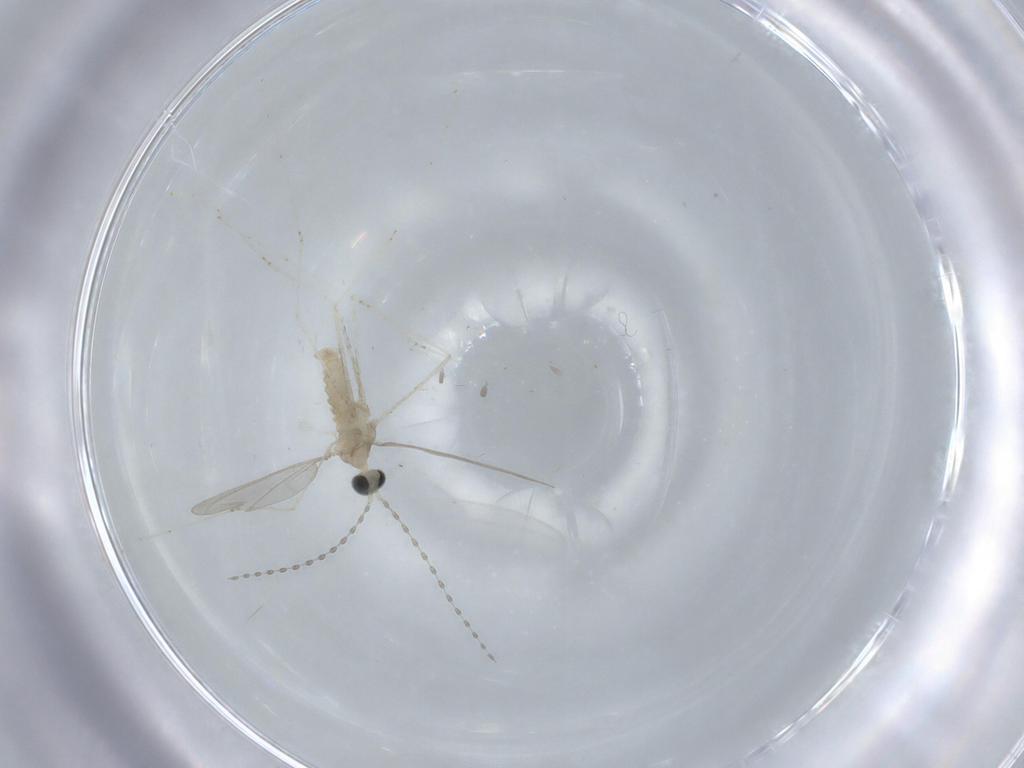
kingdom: Animalia
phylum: Arthropoda
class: Insecta
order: Diptera
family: Cecidomyiidae
